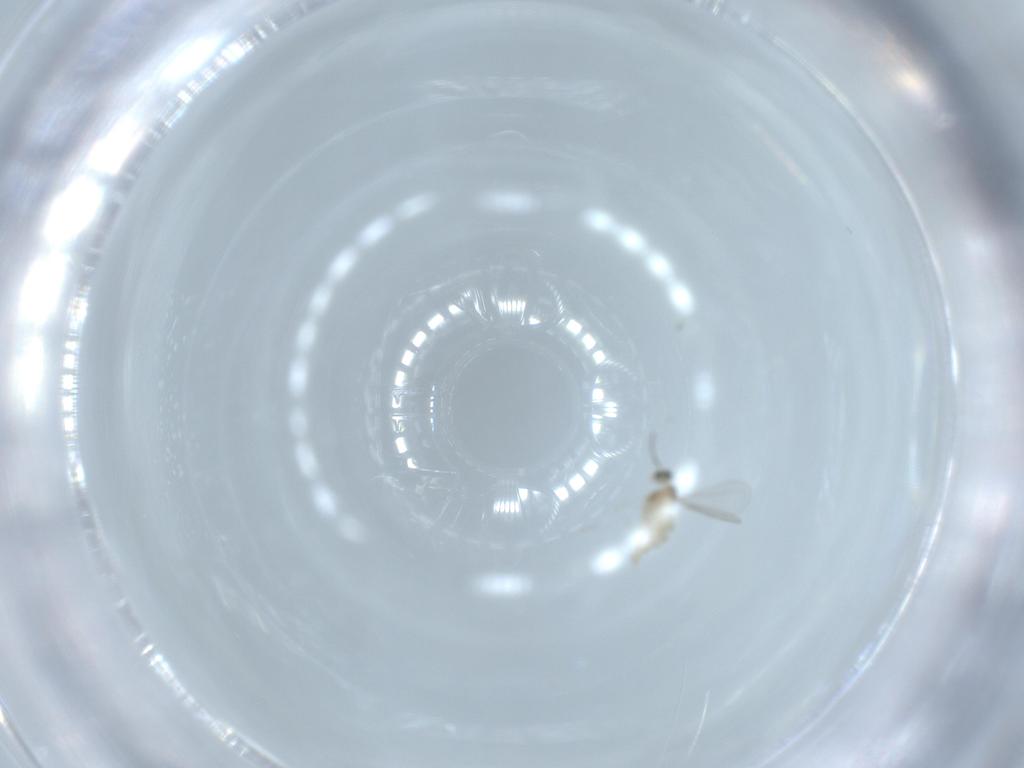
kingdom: Animalia
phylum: Arthropoda
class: Insecta
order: Diptera
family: Cecidomyiidae
